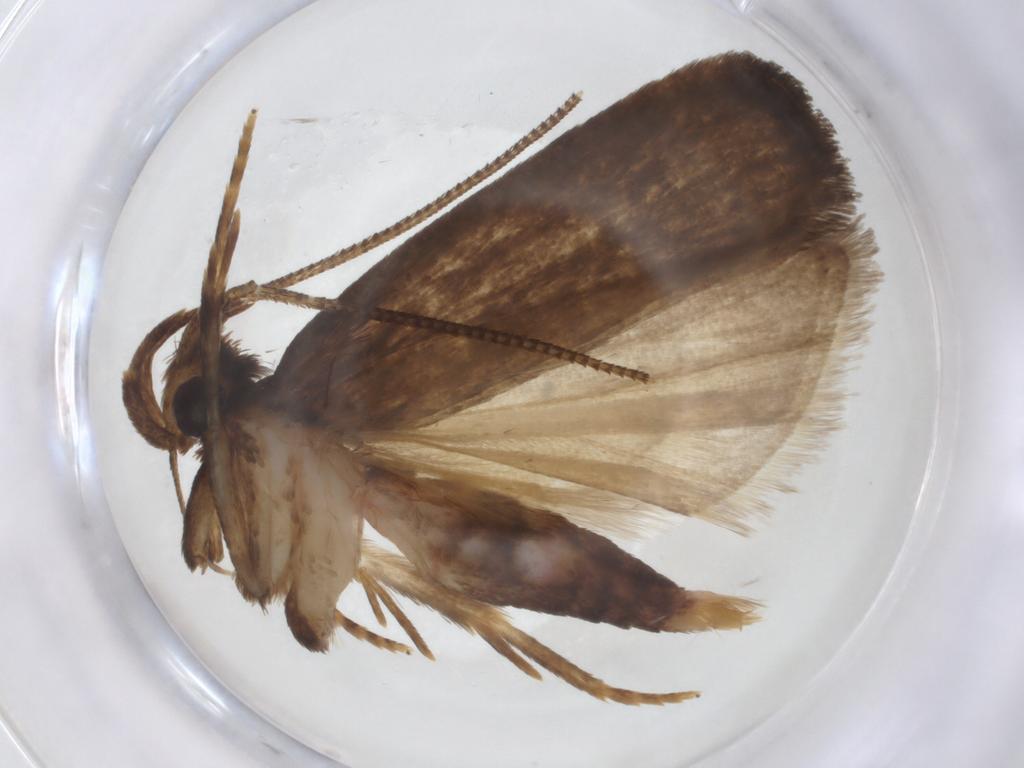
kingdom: Animalia
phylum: Arthropoda
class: Insecta
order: Lepidoptera
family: Autostichidae
